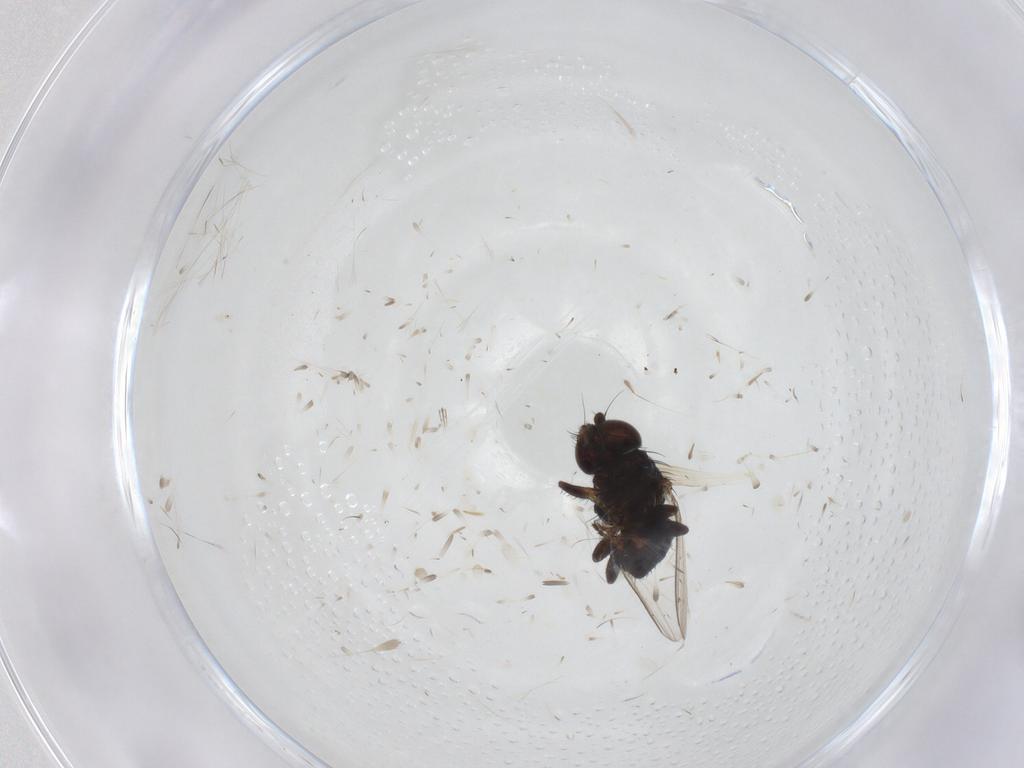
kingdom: Animalia
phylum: Arthropoda
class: Insecta
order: Diptera
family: Milichiidae
